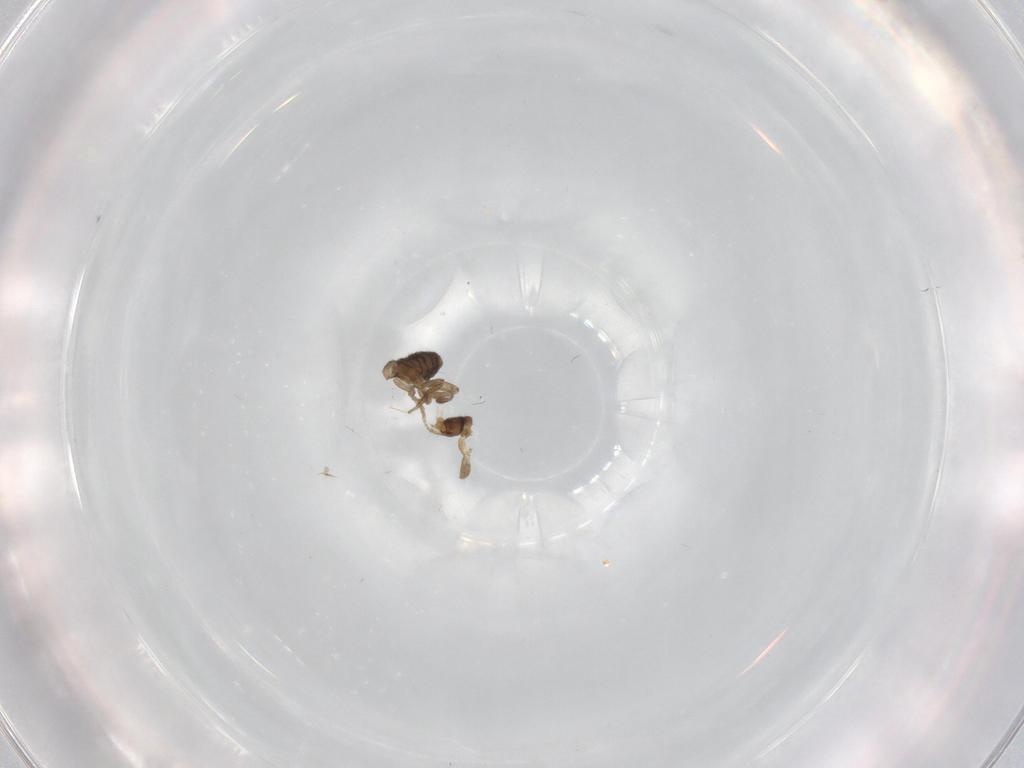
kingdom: Animalia
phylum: Arthropoda
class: Insecta
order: Diptera
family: Phoridae
